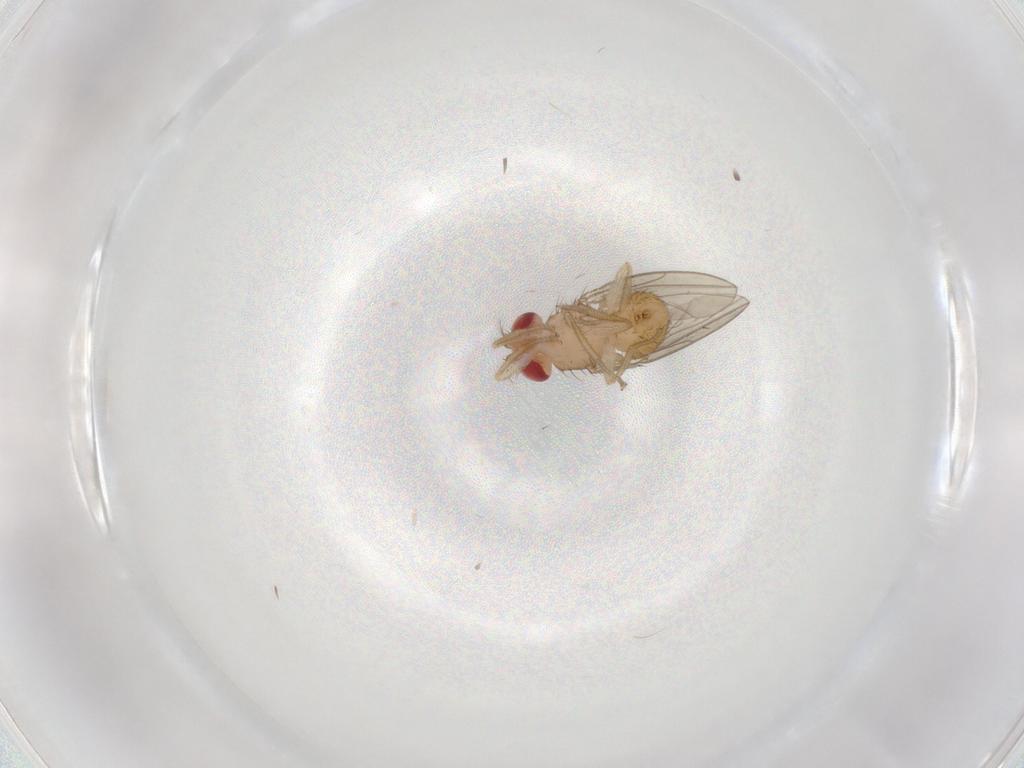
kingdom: Animalia
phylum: Arthropoda
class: Insecta
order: Diptera
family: Drosophilidae
